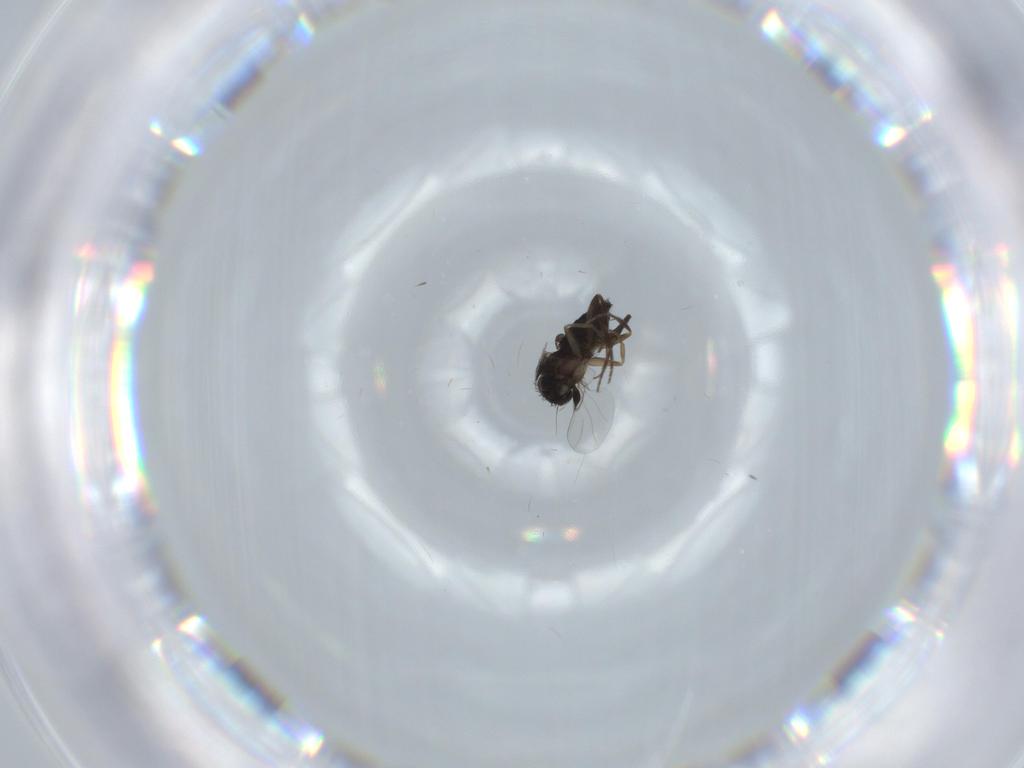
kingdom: Animalia
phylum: Arthropoda
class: Insecta
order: Diptera
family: Phoridae
